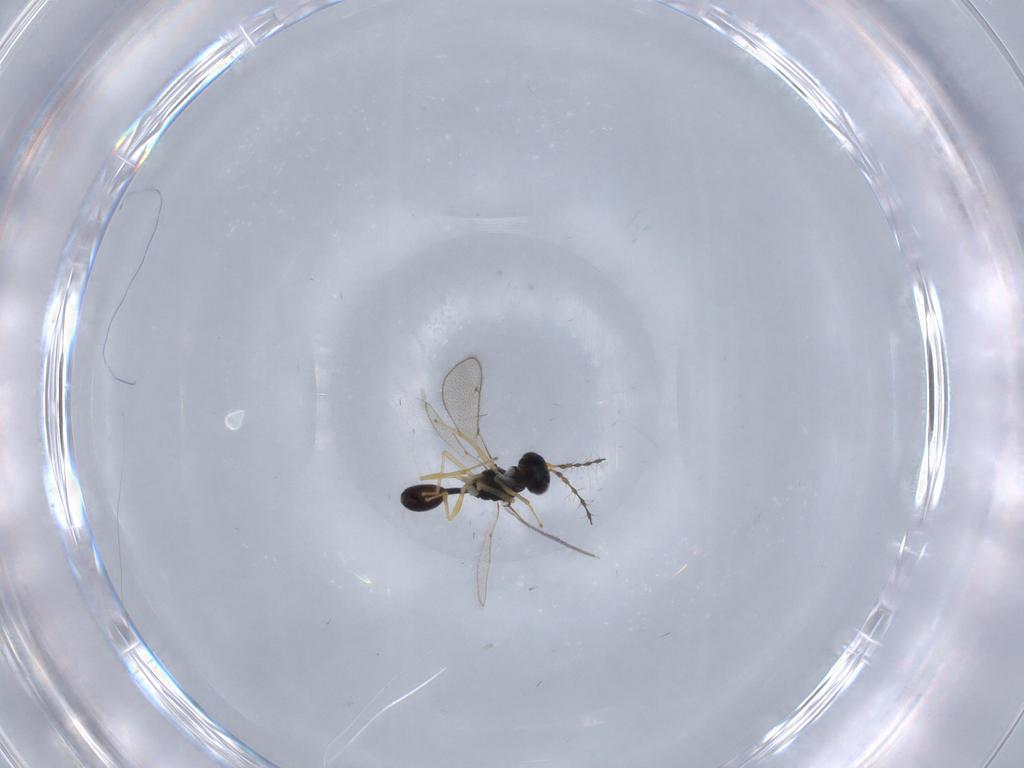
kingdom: Animalia
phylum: Arthropoda
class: Insecta
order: Hymenoptera
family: Diparidae
